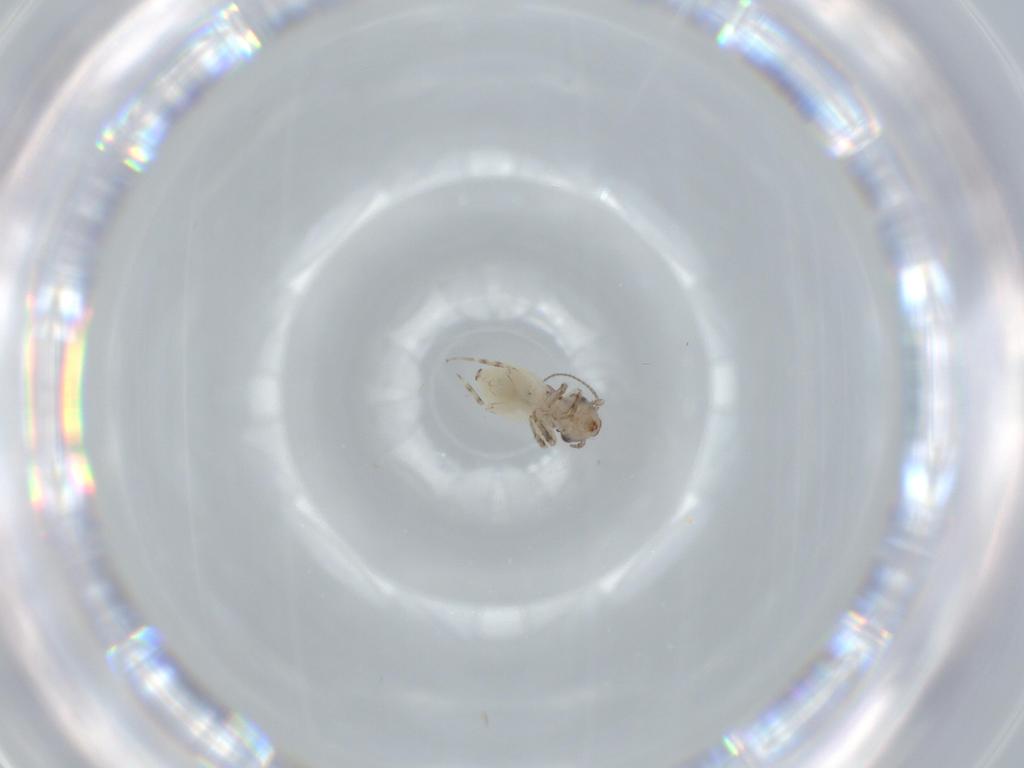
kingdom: Animalia
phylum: Arthropoda
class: Insecta
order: Psocodea
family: Lepidopsocidae
